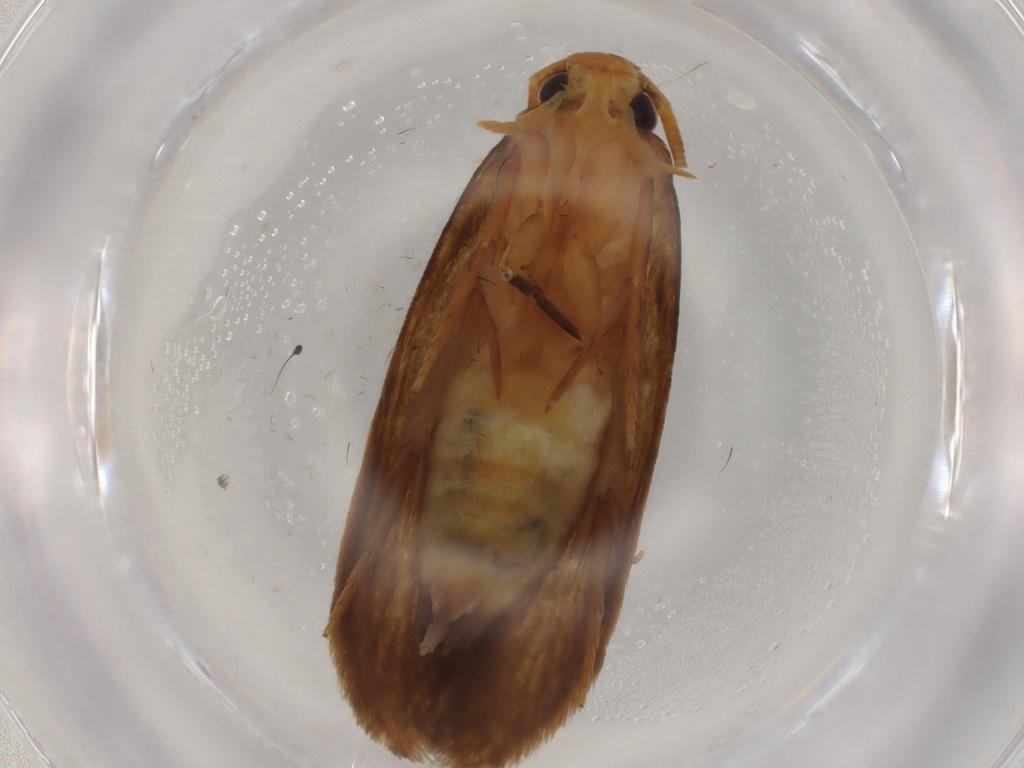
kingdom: Animalia
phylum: Arthropoda
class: Insecta
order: Lepidoptera
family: Tineidae
